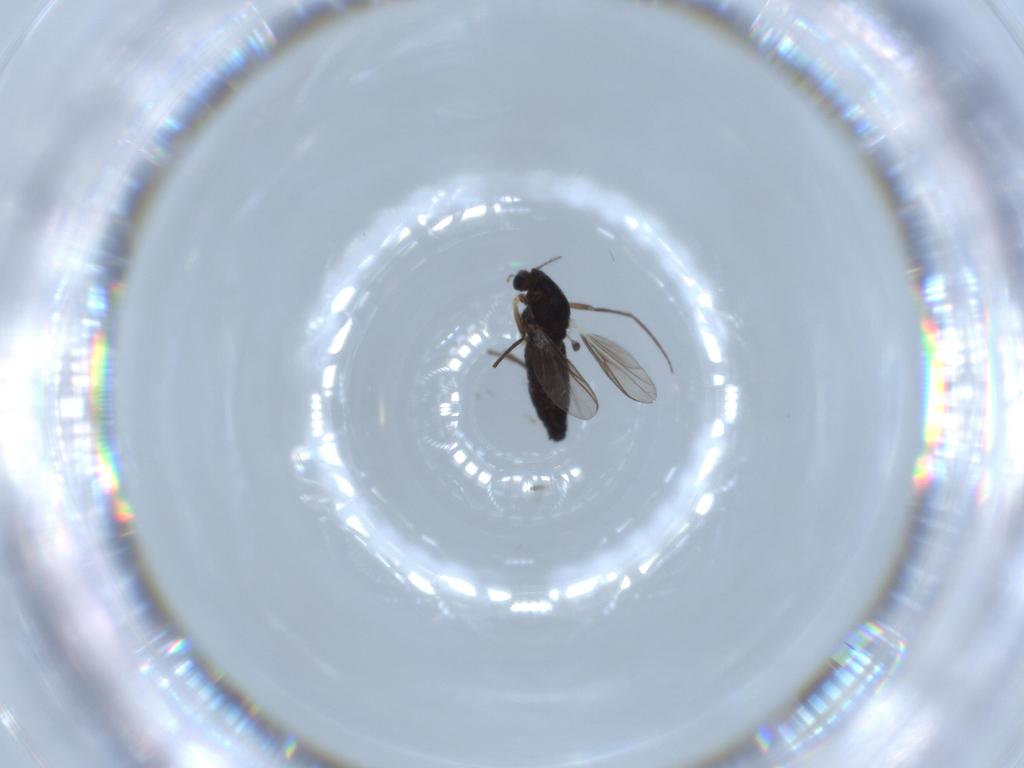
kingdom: Animalia
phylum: Arthropoda
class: Insecta
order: Diptera
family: Chironomidae
